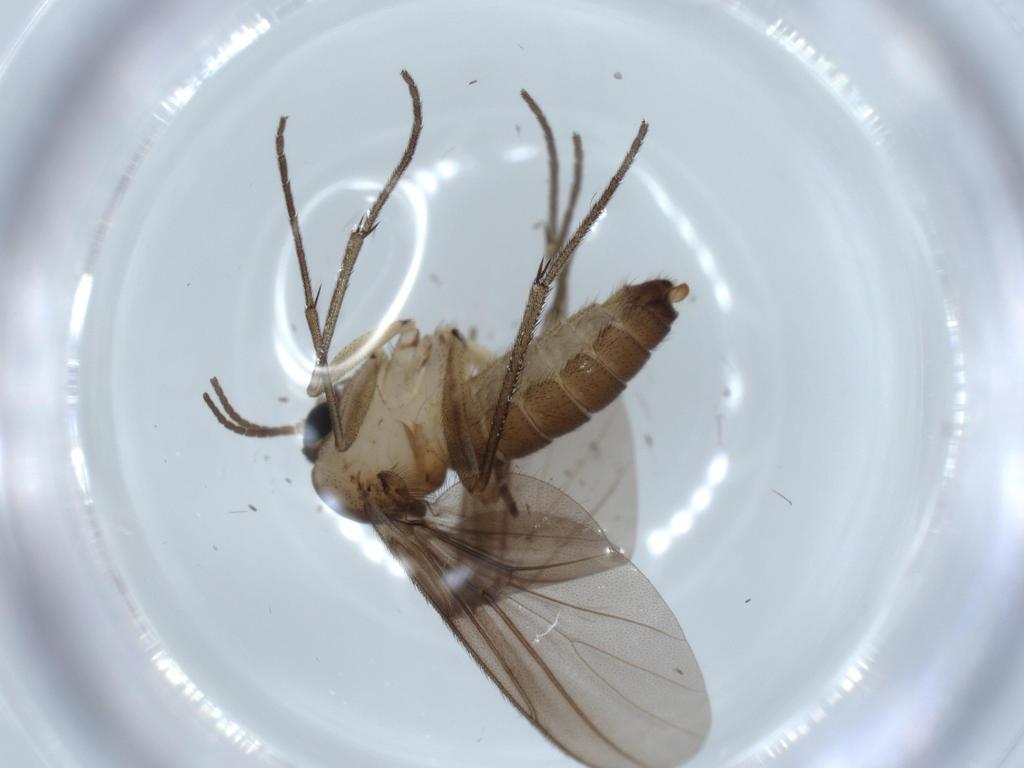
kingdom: Animalia
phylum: Arthropoda
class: Insecta
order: Diptera
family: Diadocidiidae
